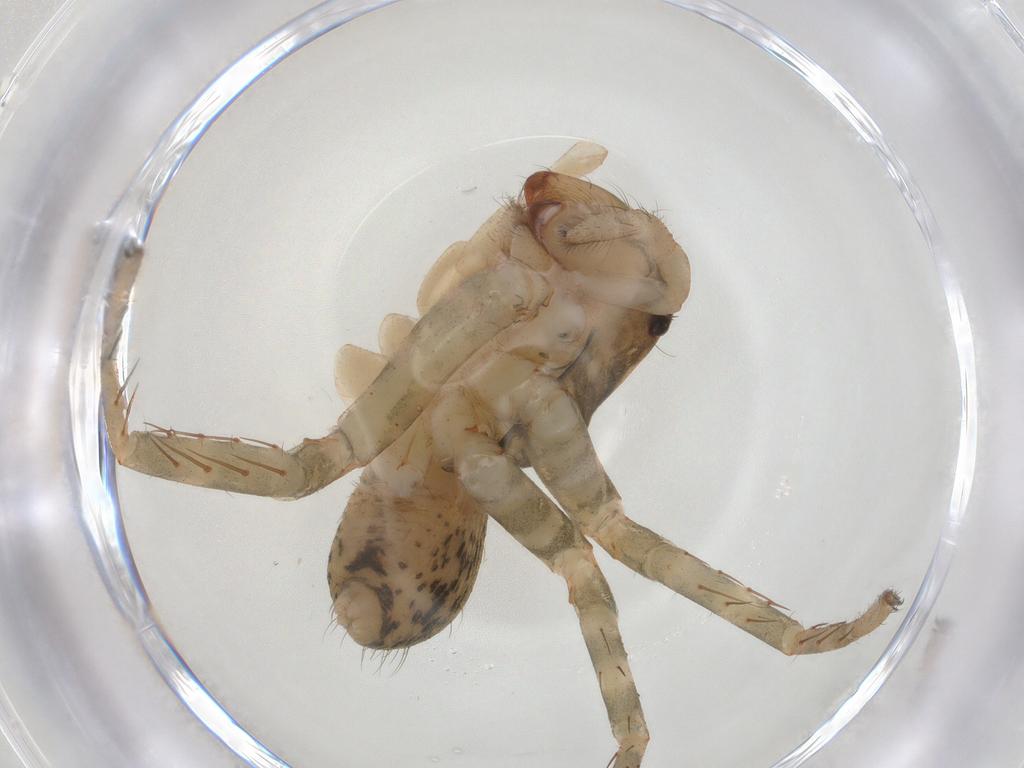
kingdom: Animalia
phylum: Arthropoda
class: Arachnida
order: Araneae
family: Ctenidae
